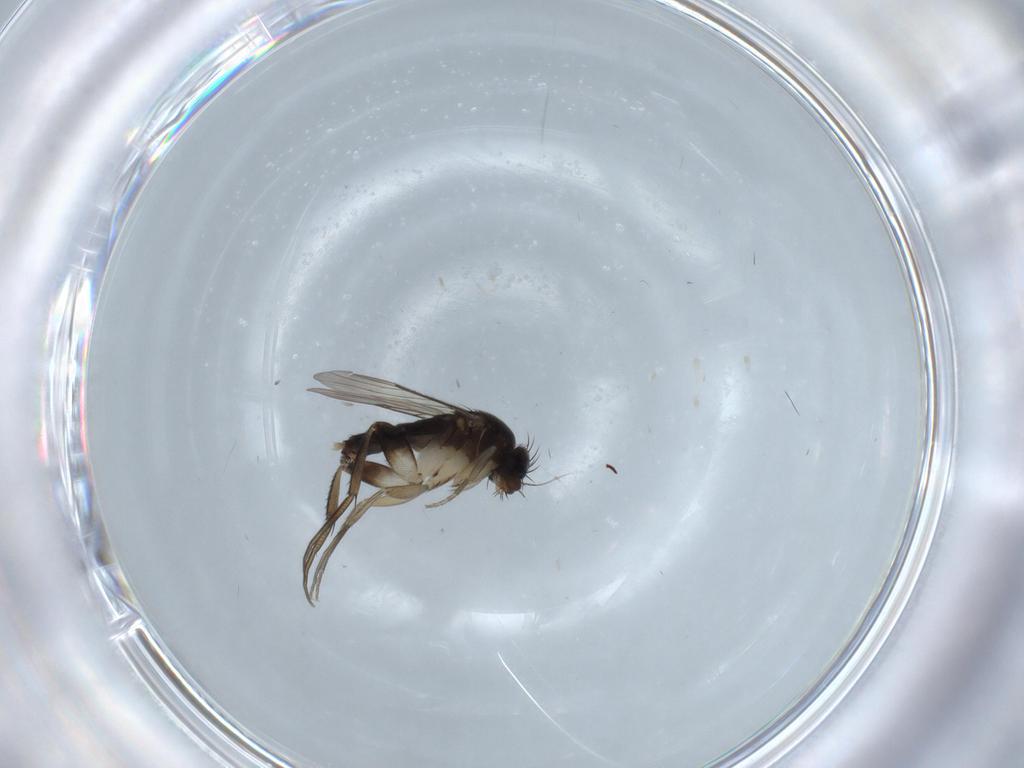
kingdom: Animalia
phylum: Arthropoda
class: Insecta
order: Diptera
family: Phoridae
